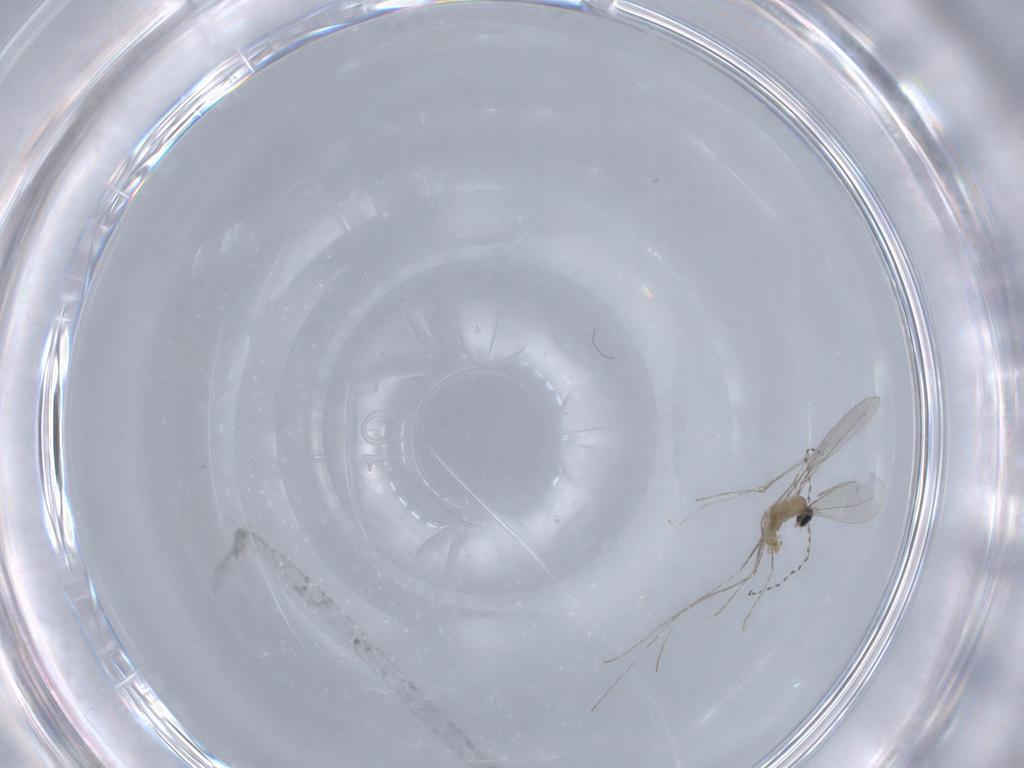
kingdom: Animalia
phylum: Arthropoda
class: Insecta
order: Diptera
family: Cecidomyiidae
